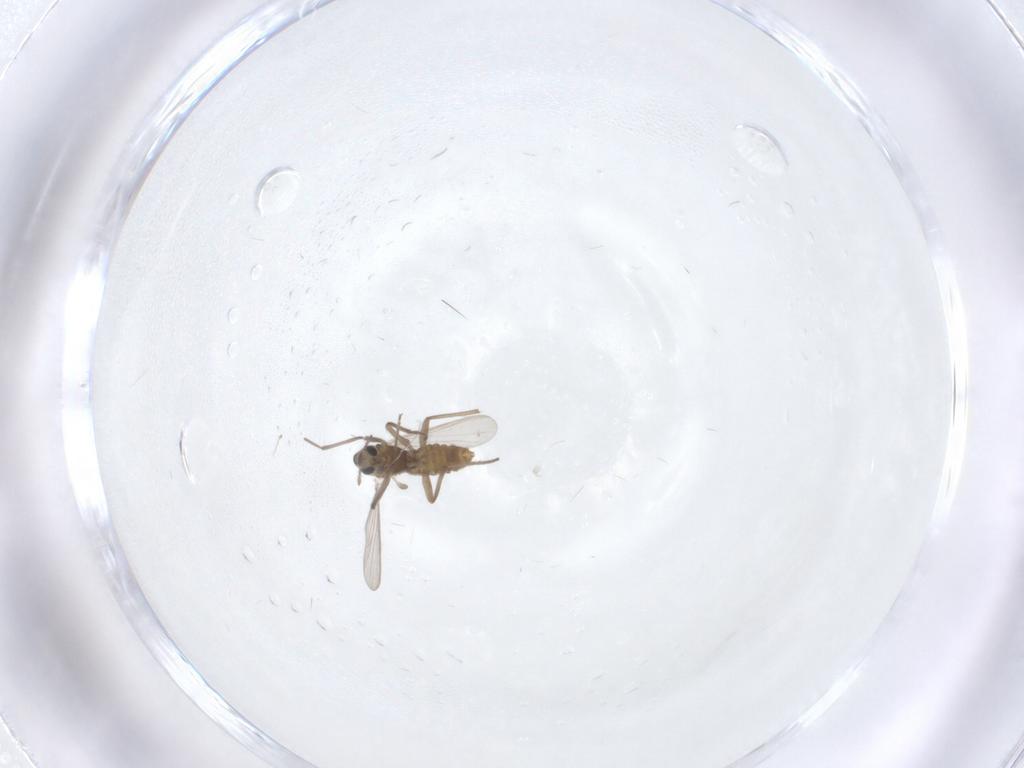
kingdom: Animalia
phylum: Arthropoda
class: Insecta
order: Diptera
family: Chironomidae
